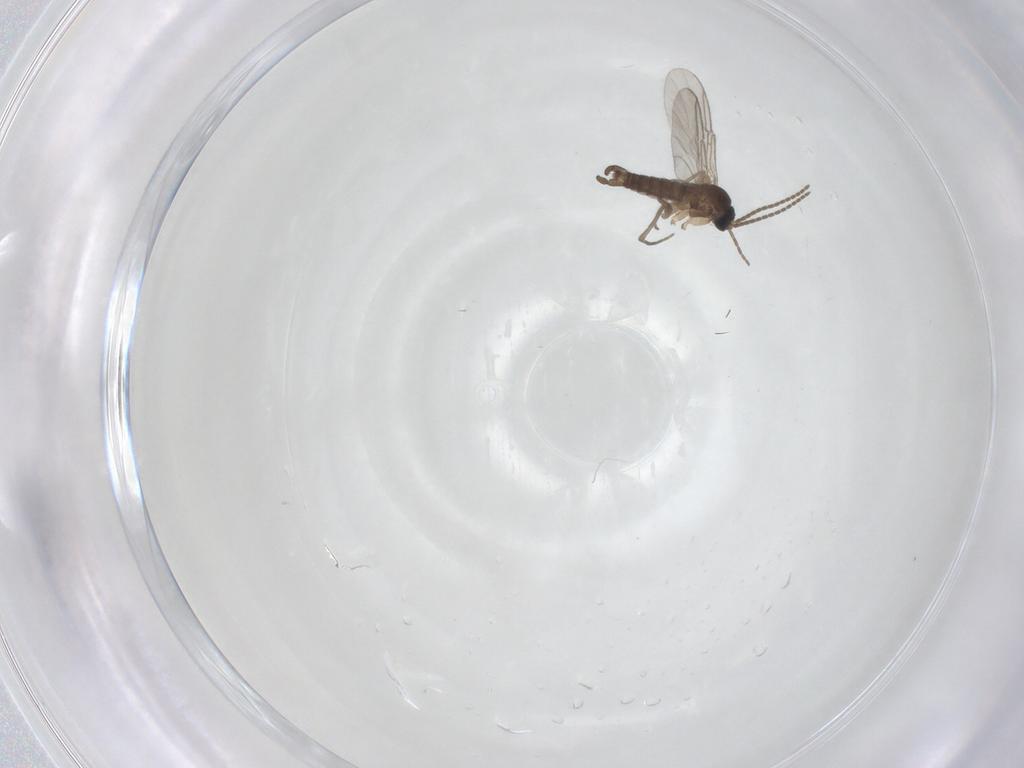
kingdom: Animalia
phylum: Arthropoda
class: Insecta
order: Diptera
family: Sciaridae
